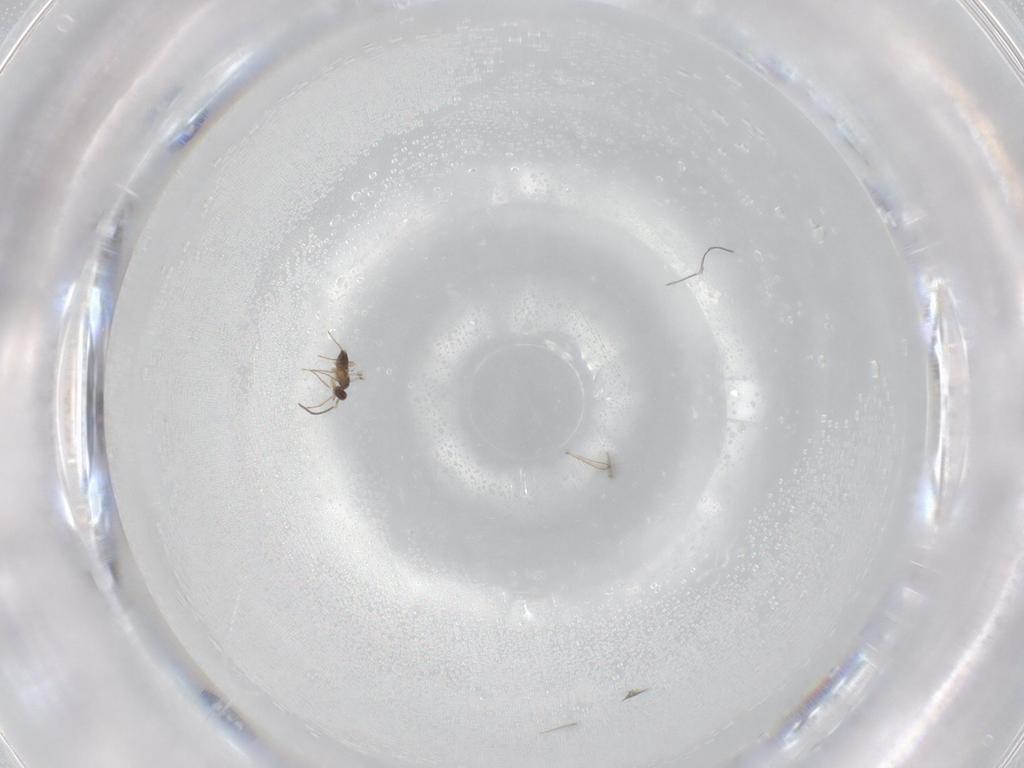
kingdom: Animalia
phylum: Arthropoda
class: Insecta
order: Hymenoptera
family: Mymaridae
